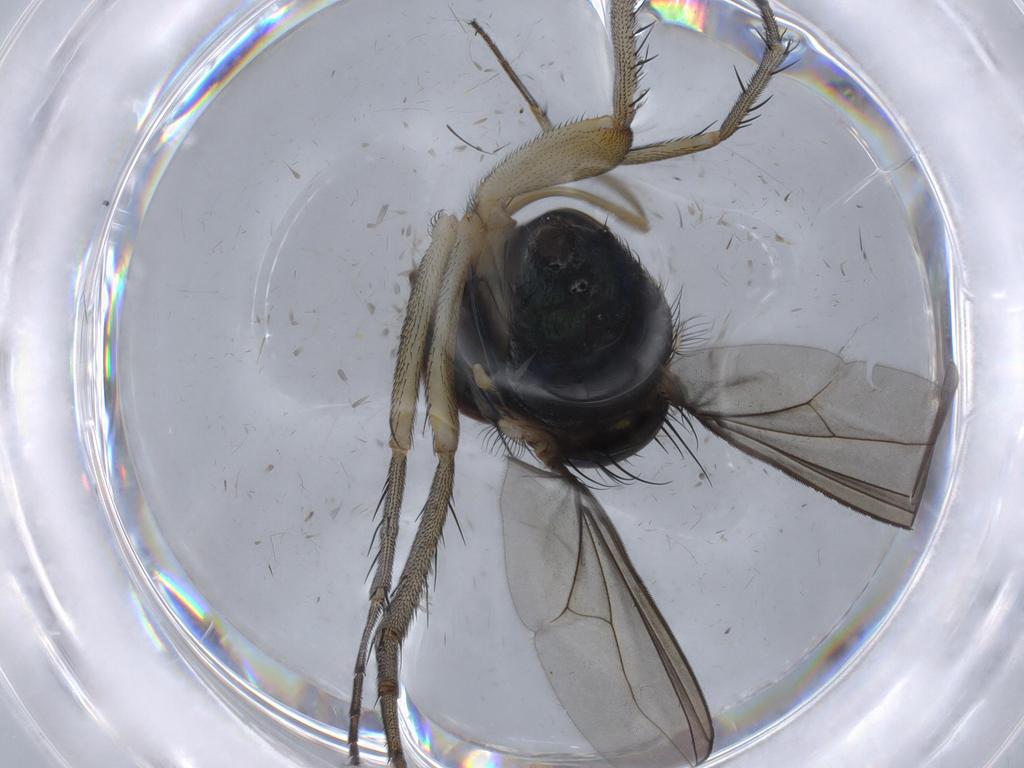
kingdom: Animalia
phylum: Arthropoda
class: Insecta
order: Diptera
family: Dolichopodidae
